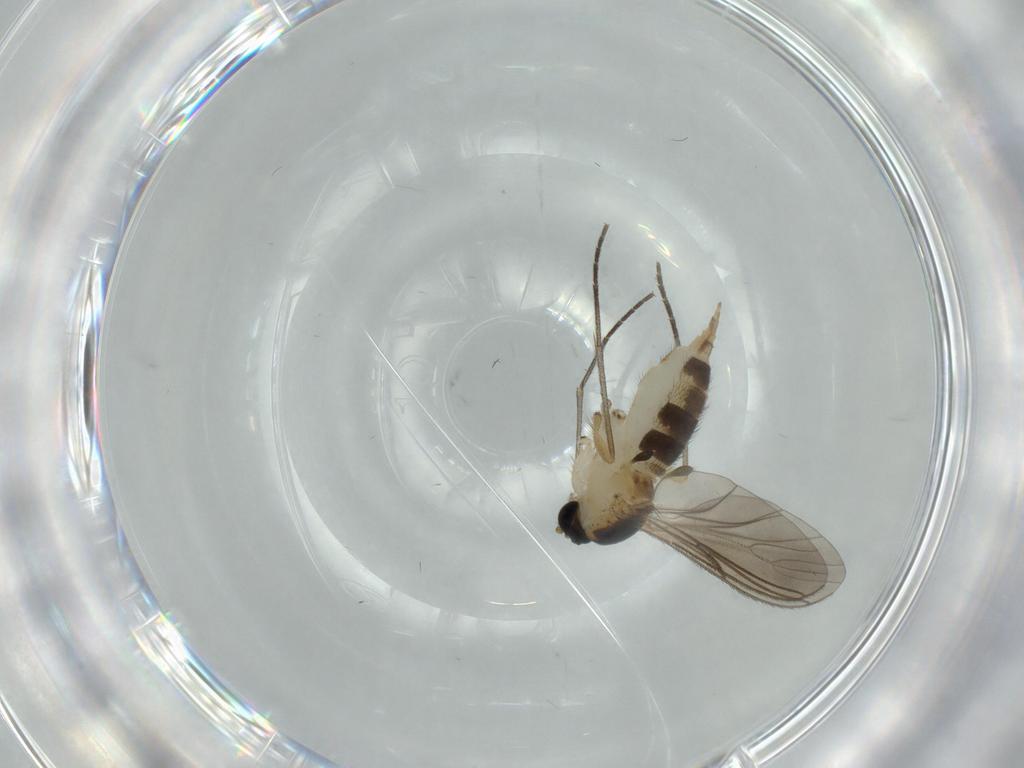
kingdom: Animalia
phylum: Arthropoda
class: Insecta
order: Diptera
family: Sciaridae
